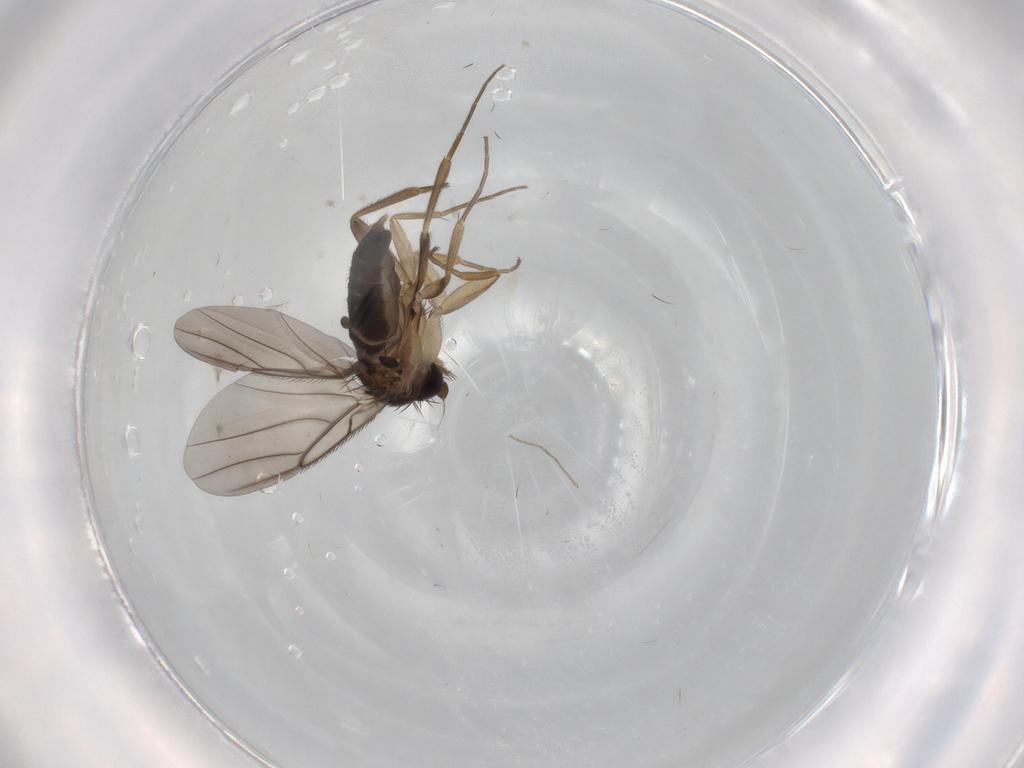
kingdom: Animalia
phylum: Arthropoda
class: Insecta
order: Diptera
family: Phoridae
